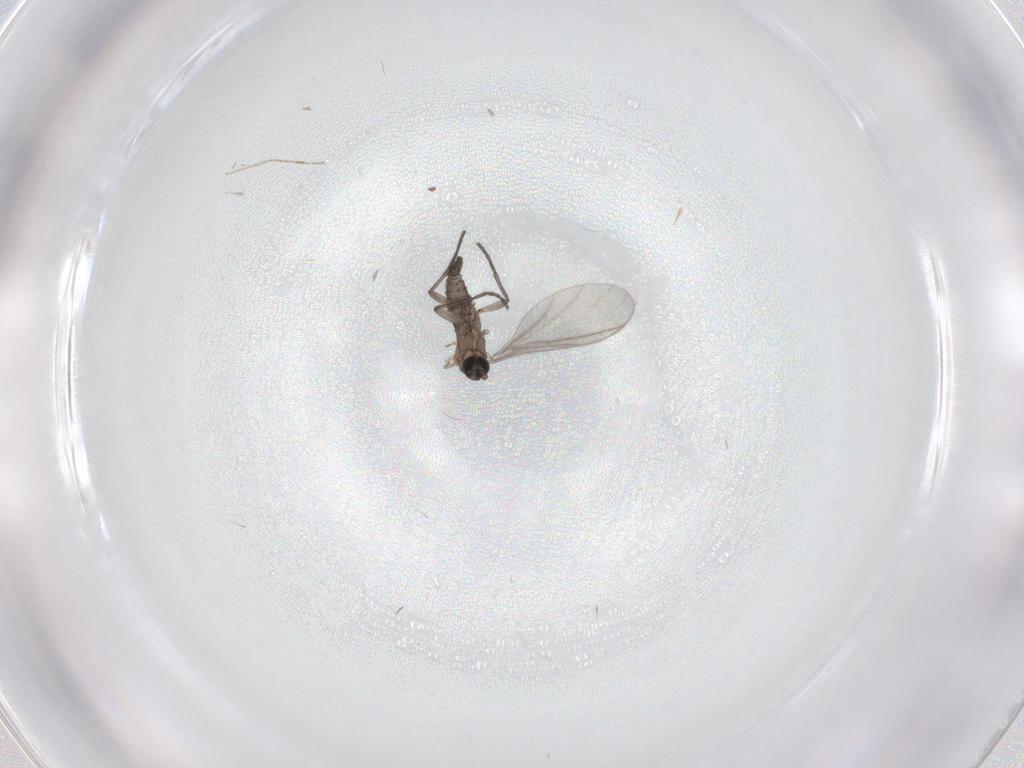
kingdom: Animalia
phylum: Arthropoda
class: Insecta
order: Diptera
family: Sciaridae
